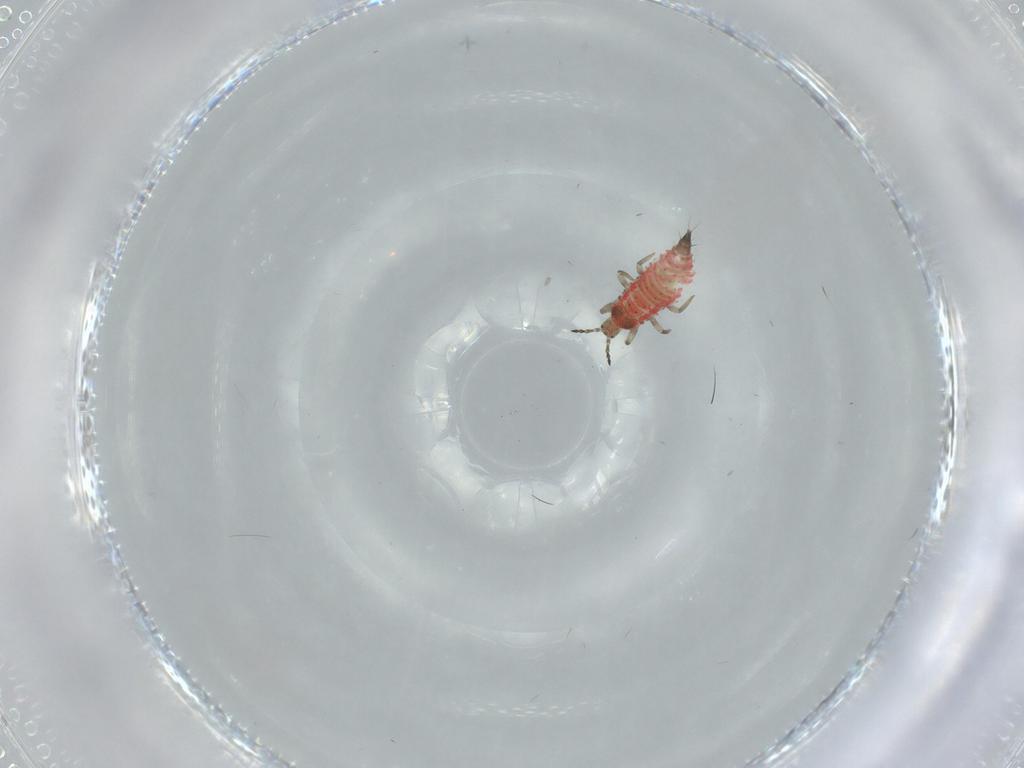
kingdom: Animalia
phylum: Arthropoda
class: Insecta
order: Thysanoptera
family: Phlaeothripidae
